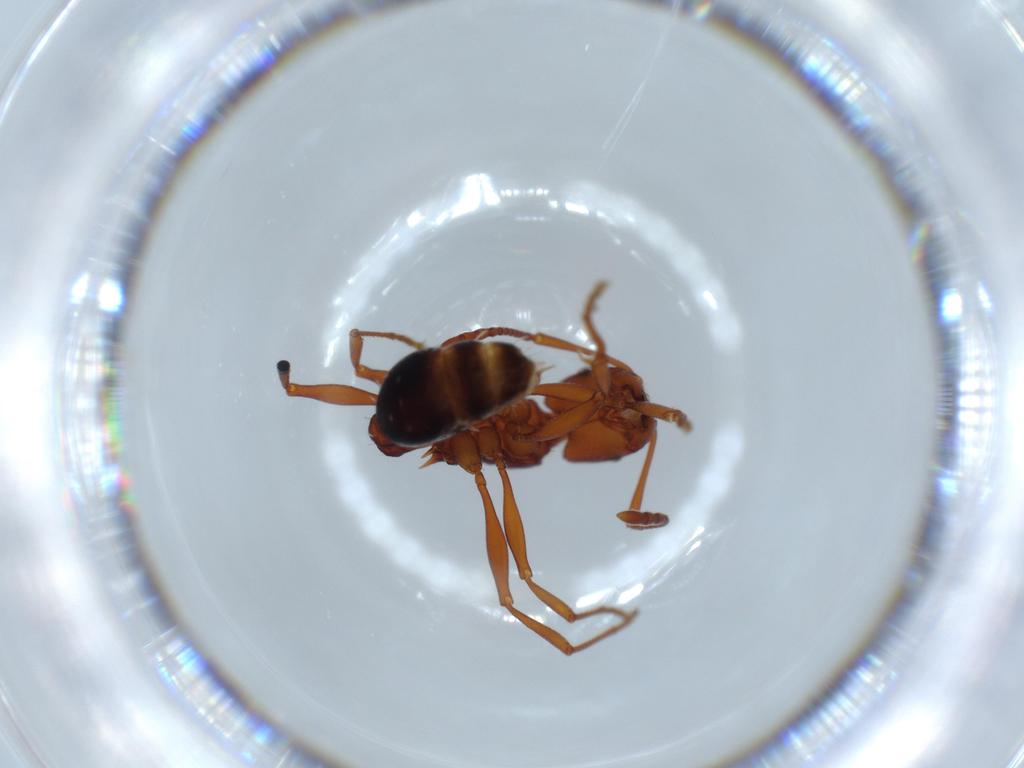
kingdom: Animalia
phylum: Arthropoda
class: Insecta
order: Hymenoptera
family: Formicidae
